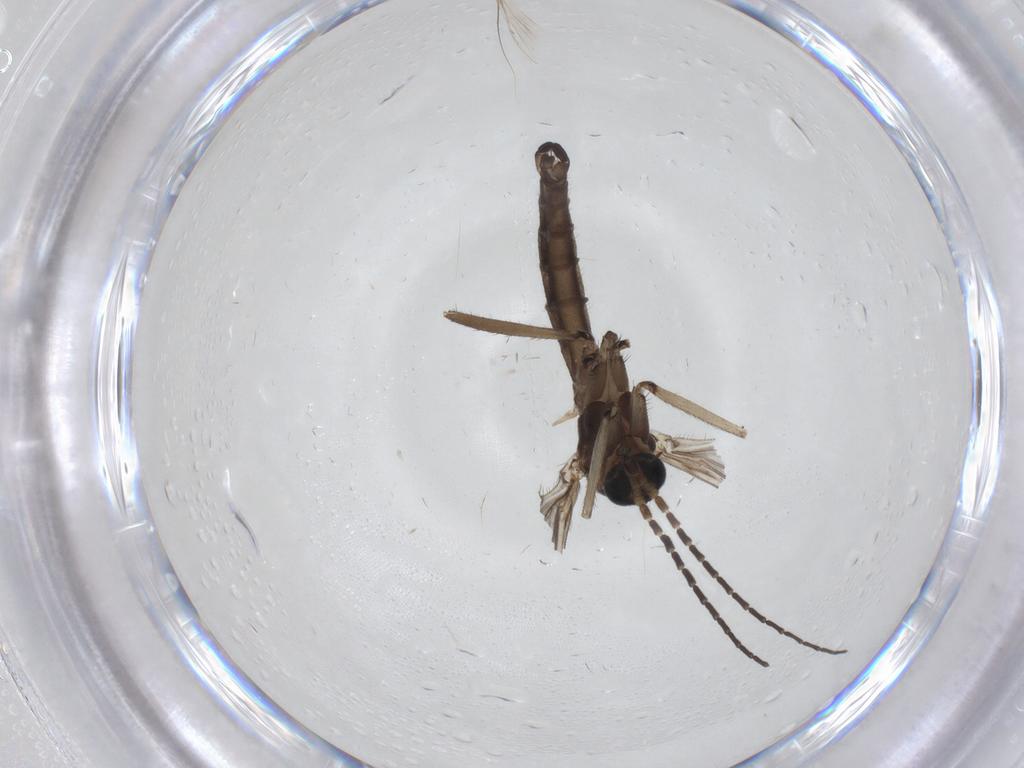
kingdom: Animalia
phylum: Arthropoda
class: Insecta
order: Diptera
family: Sciaridae
